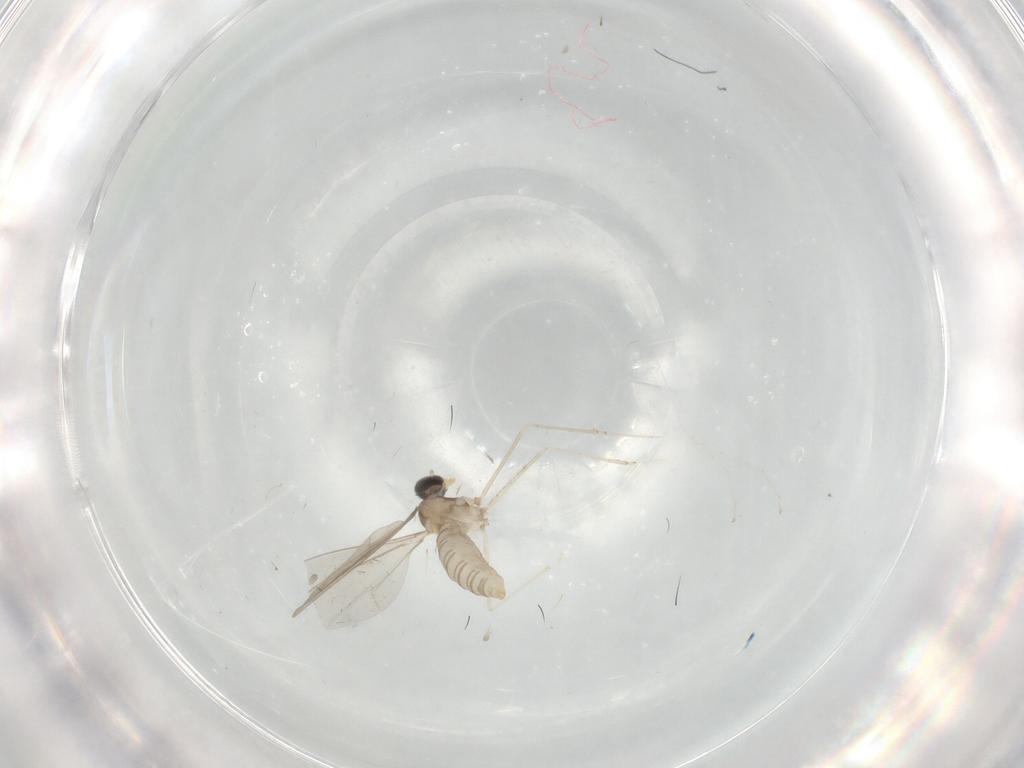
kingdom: Animalia
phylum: Arthropoda
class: Insecta
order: Diptera
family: Cecidomyiidae
